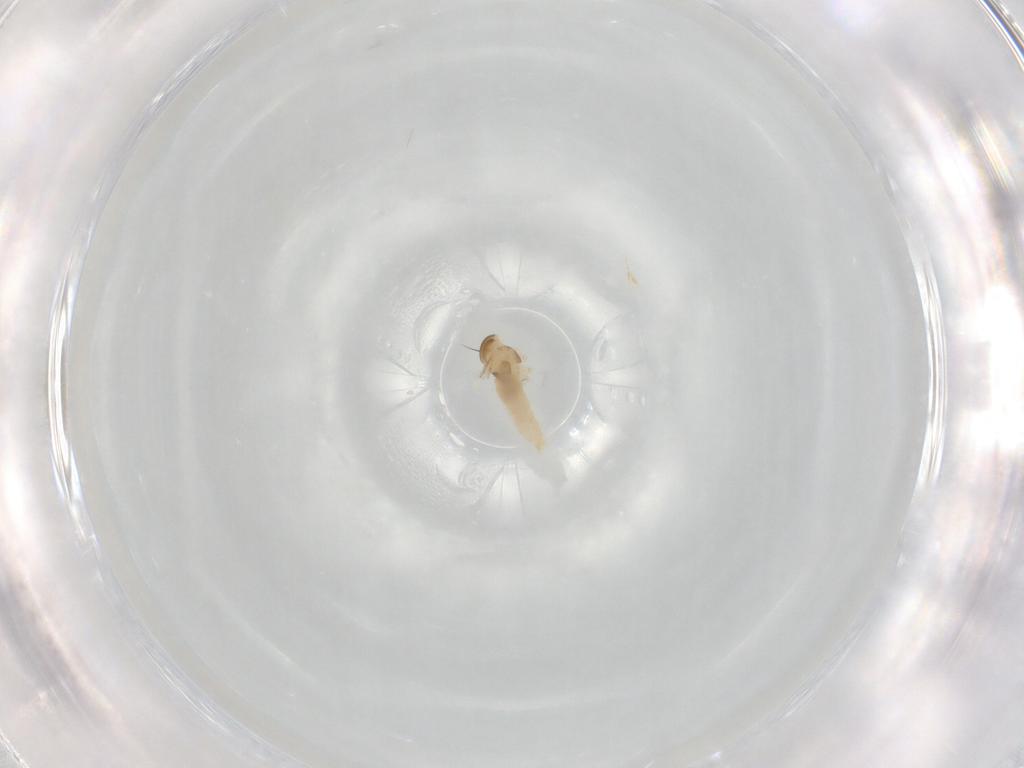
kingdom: Animalia
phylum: Arthropoda
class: Insecta
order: Diptera
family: Cecidomyiidae
